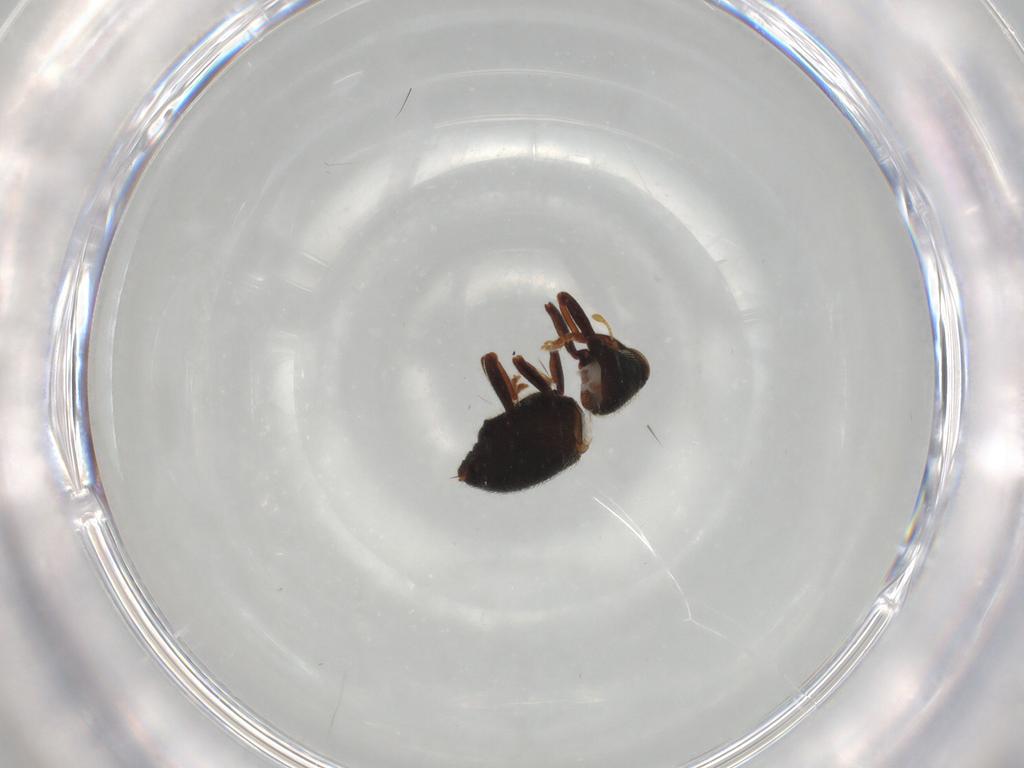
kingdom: Animalia
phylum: Arthropoda
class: Insecta
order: Coleoptera
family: Curculionidae
